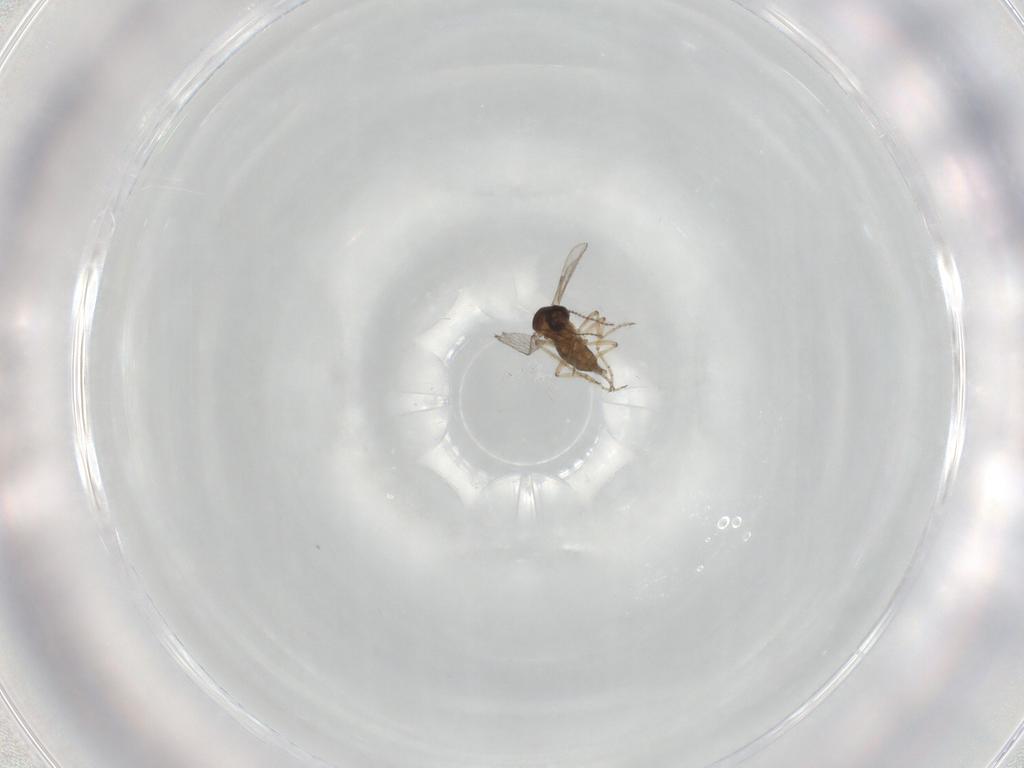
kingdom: Animalia
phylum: Arthropoda
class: Insecta
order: Diptera
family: Ceratopogonidae
